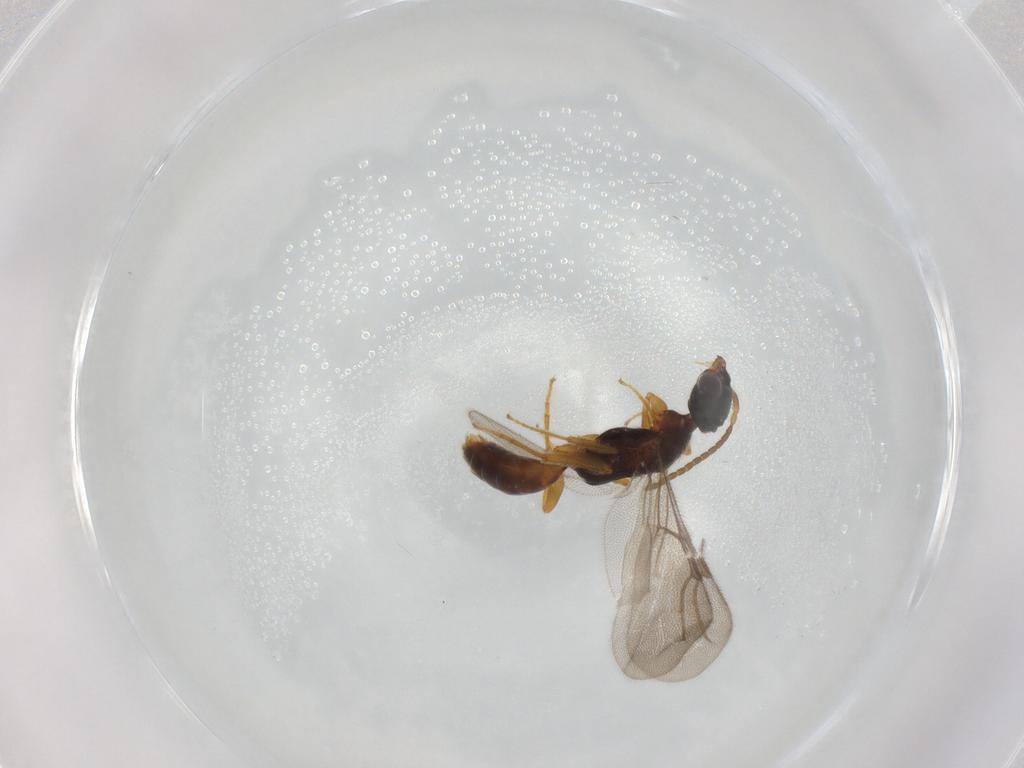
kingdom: Animalia
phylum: Arthropoda
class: Insecta
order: Hymenoptera
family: Bethylidae
